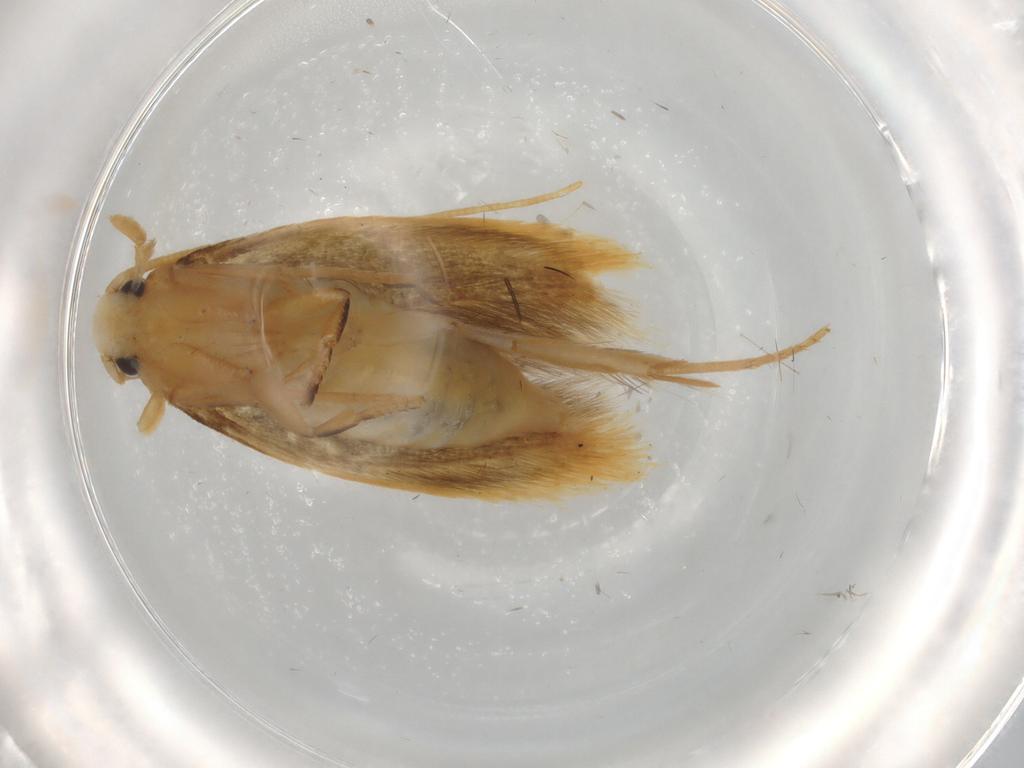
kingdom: Animalia
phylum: Arthropoda
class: Insecta
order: Lepidoptera
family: Tineidae
